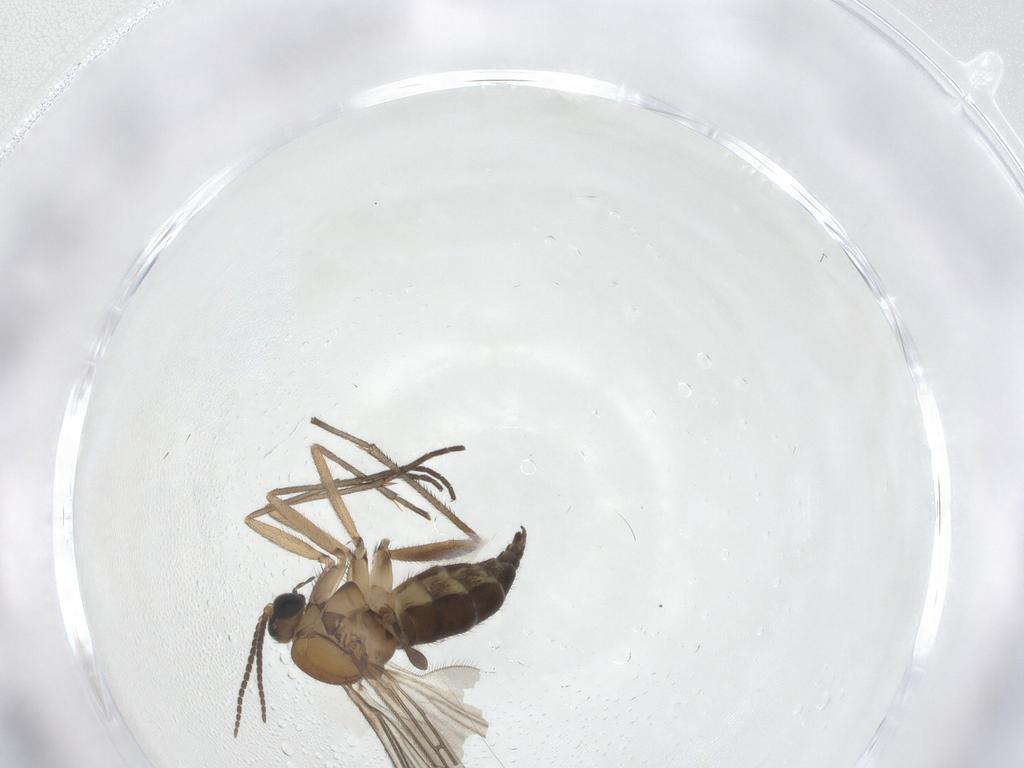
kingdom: Animalia
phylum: Arthropoda
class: Insecta
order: Diptera
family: Sciaridae
